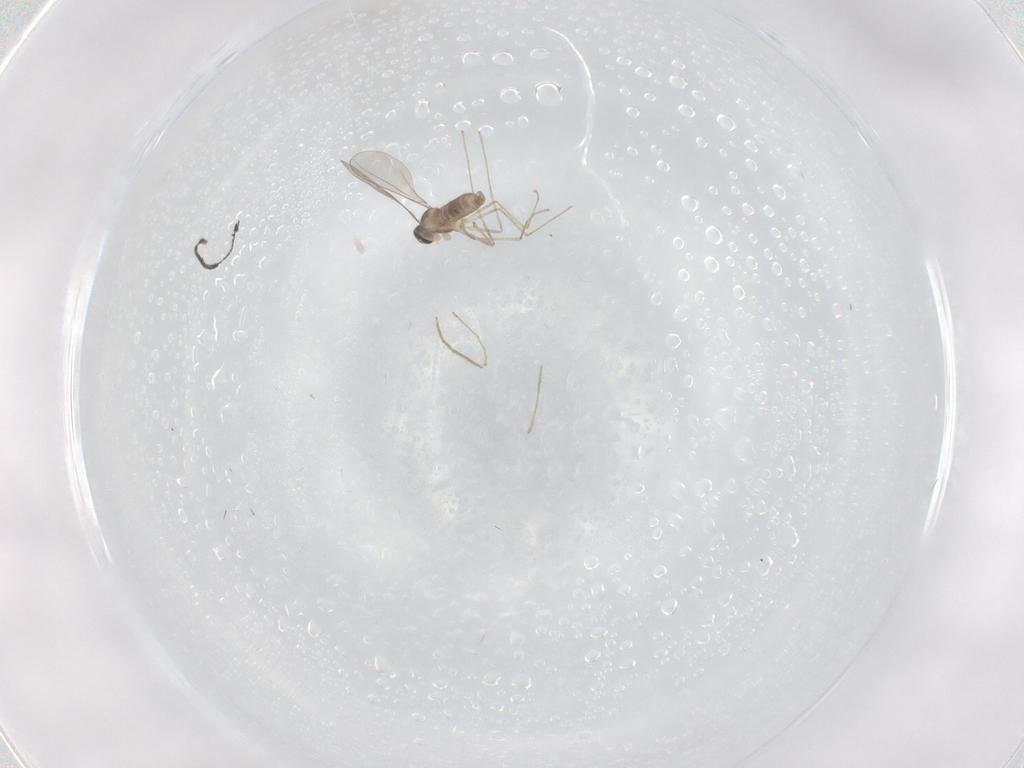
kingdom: Animalia
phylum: Arthropoda
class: Insecta
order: Diptera
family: Chironomidae
